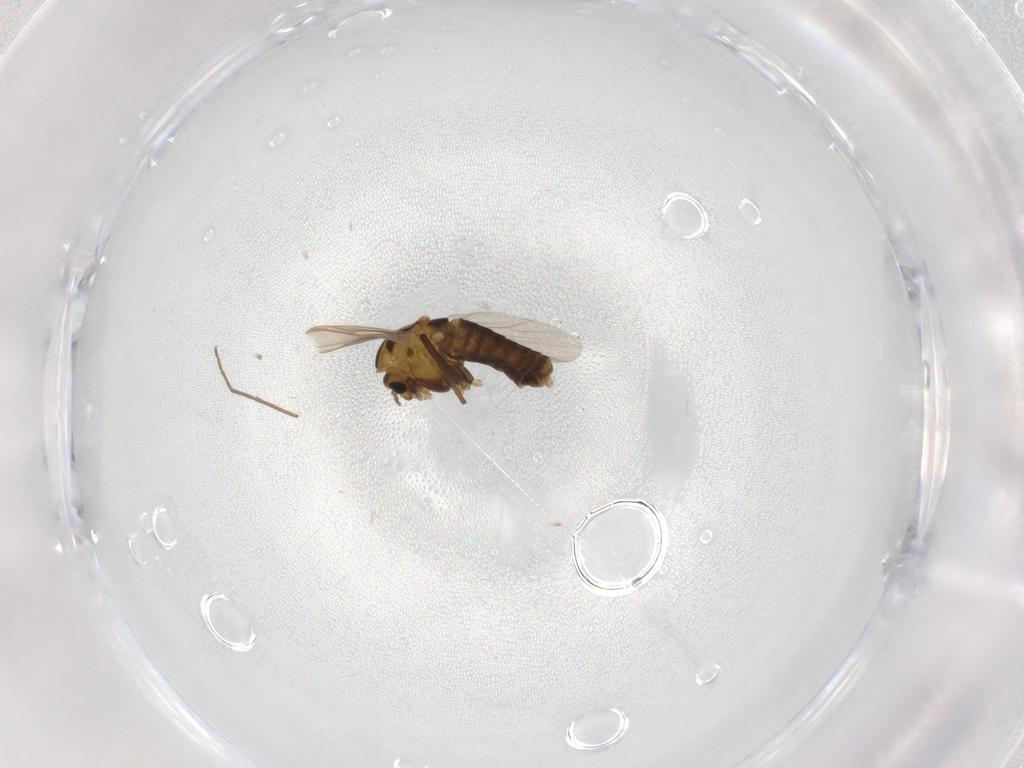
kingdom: Animalia
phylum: Arthropoda
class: Insecta
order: Diptera
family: Chironomidae
